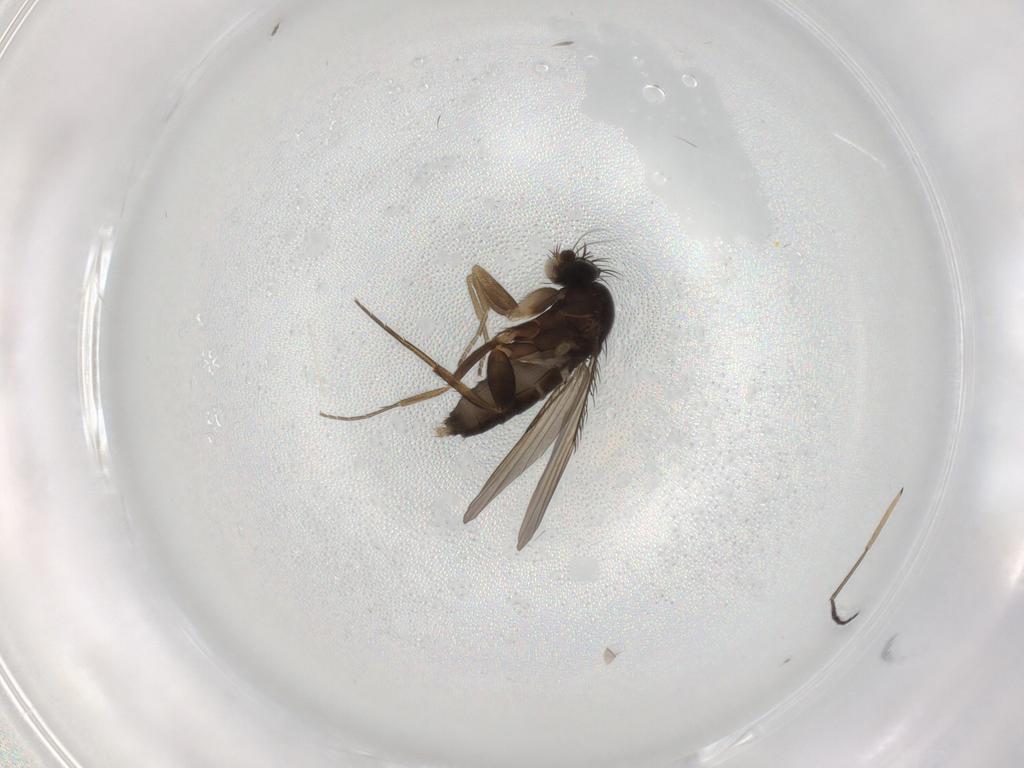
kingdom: Animalia
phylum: Arthropoda
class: Insecta
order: Diptera
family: Phoridae
